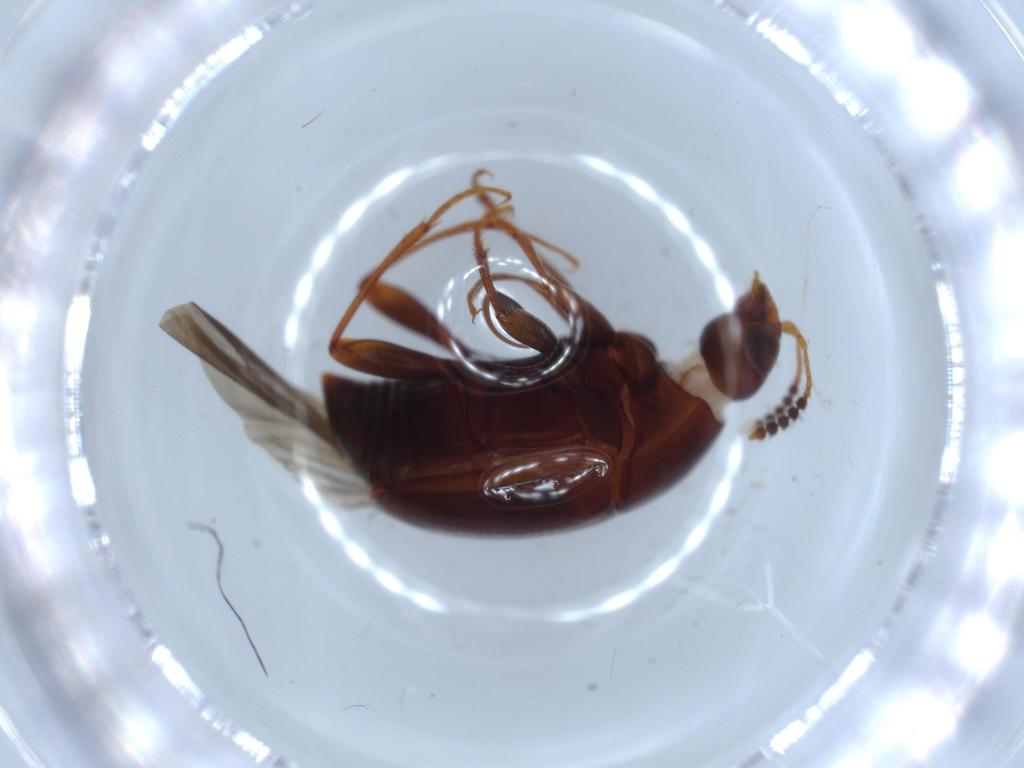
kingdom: Animalia
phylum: Arthropoda
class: Insecta
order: Coleoptera
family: Staphylinidae
